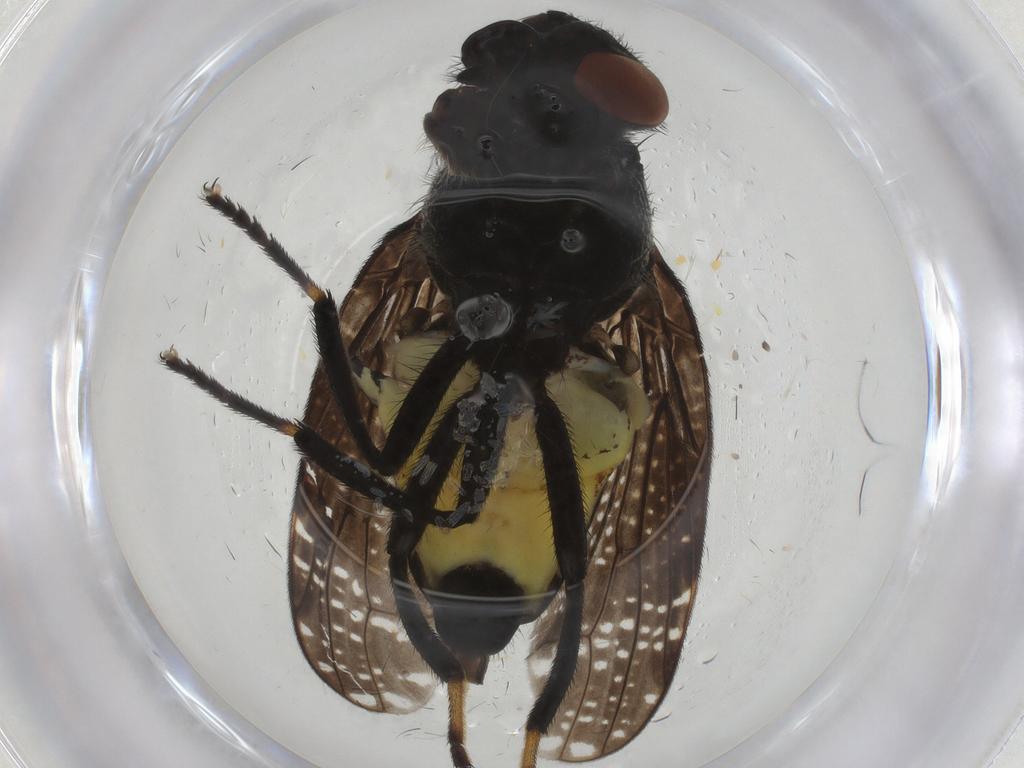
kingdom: Animalia
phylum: Arthropoda
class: Insecta
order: Diptera
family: Platystomatidae
